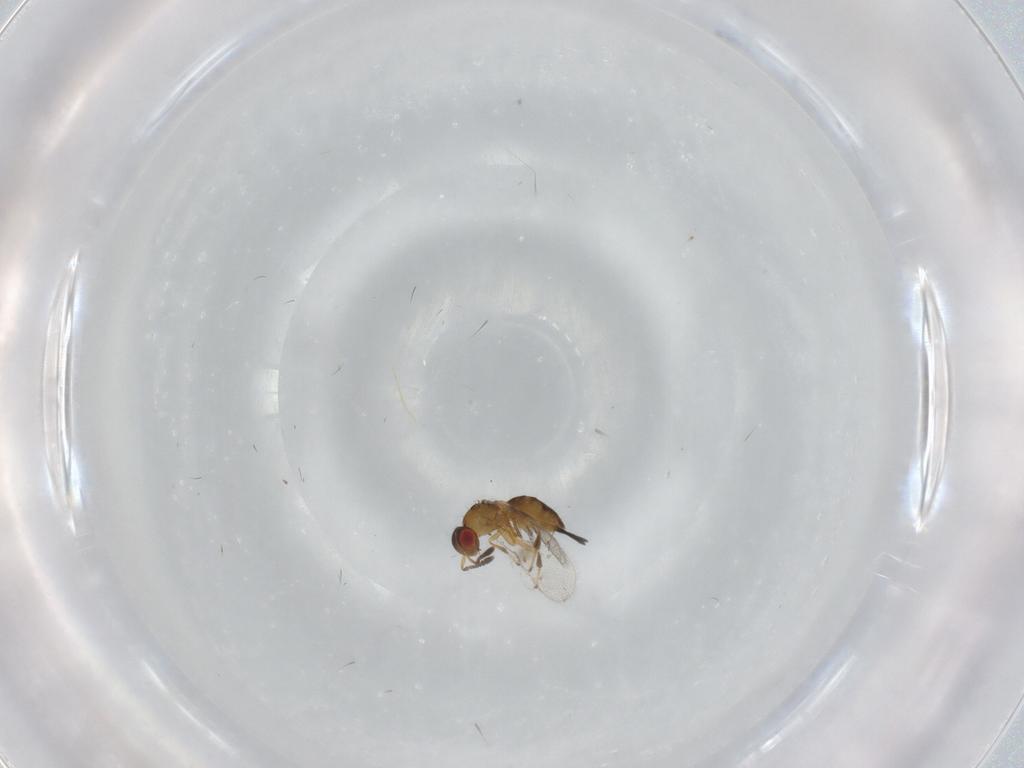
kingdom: Animalia
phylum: Arthropoda
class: Insecta
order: Hymenoptera
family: Torymidae
